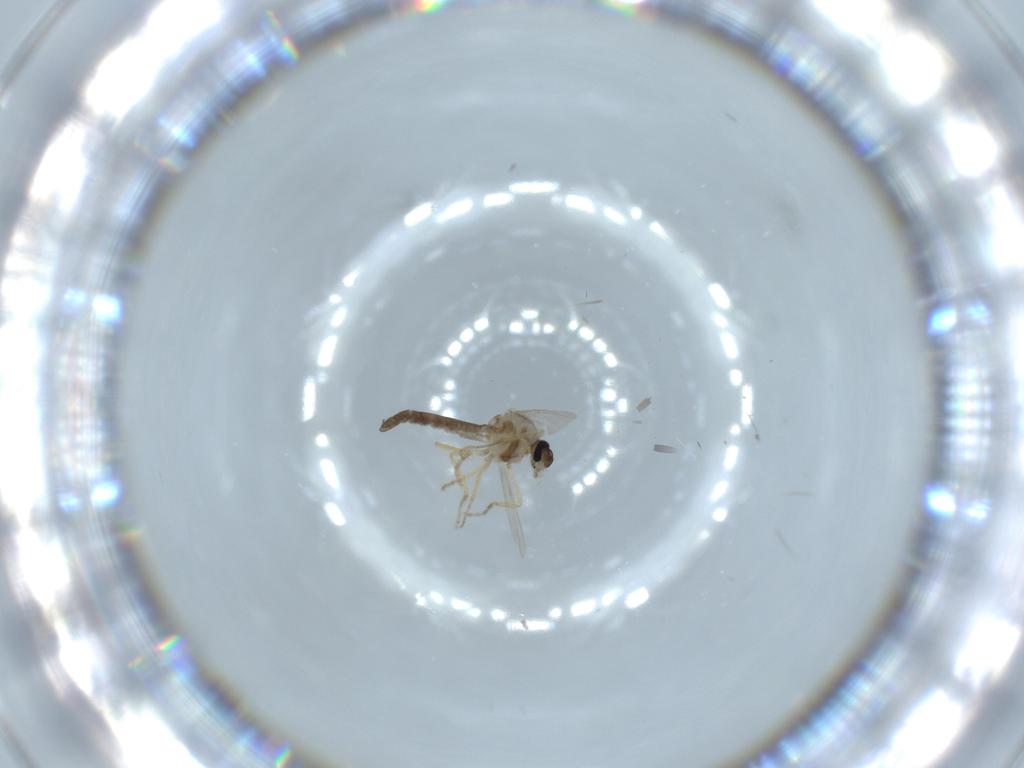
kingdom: Animalia
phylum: Arthropoda
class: Insecta
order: Diptera
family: Ceratopogonidae
